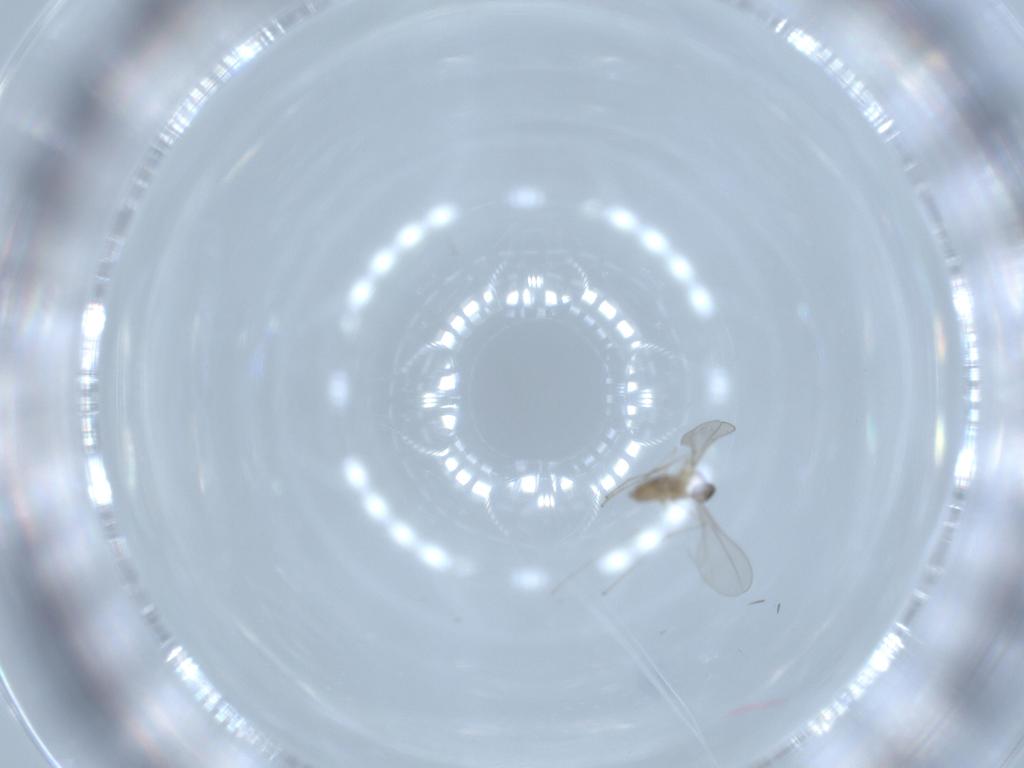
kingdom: Animalia
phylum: Arthropoda
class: Insecta
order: Diptera
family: Cecidomyiidae
